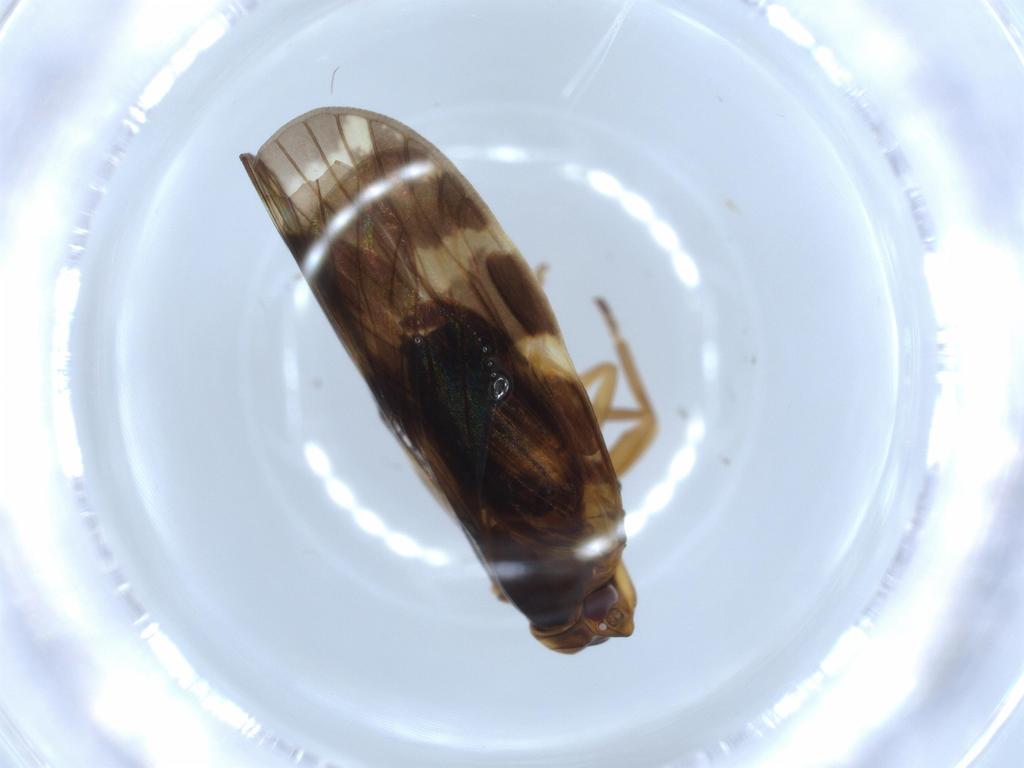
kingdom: Animalia
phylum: Arthropoda
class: Insecta
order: Hemiptera
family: Cixiidae
